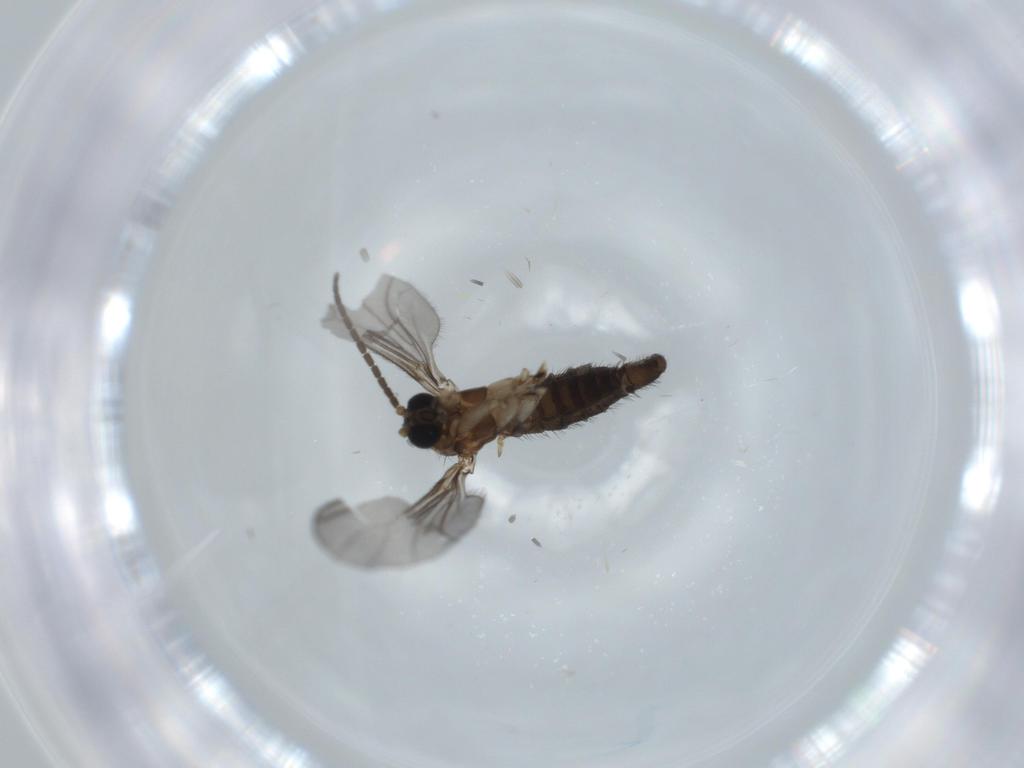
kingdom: Animalia
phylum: Arthropoda
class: Insecta
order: Diptera
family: Sciaridae
